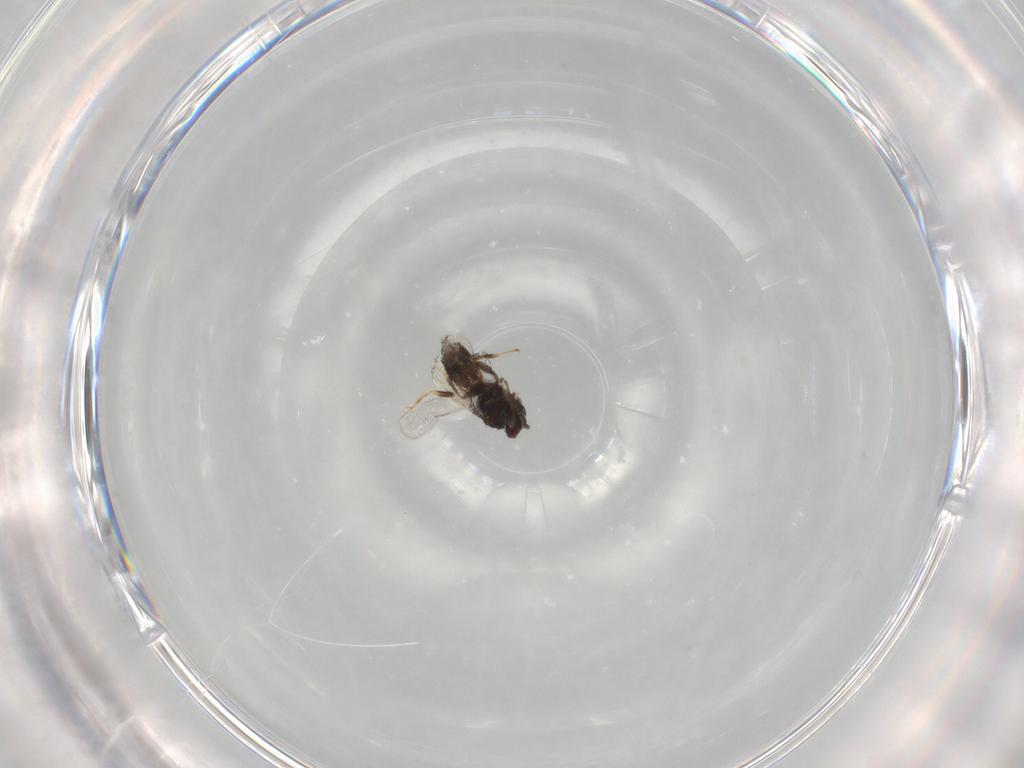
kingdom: Animalia
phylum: Arthropoda
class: Insecta
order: Hymenoptera
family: Eulophidae
